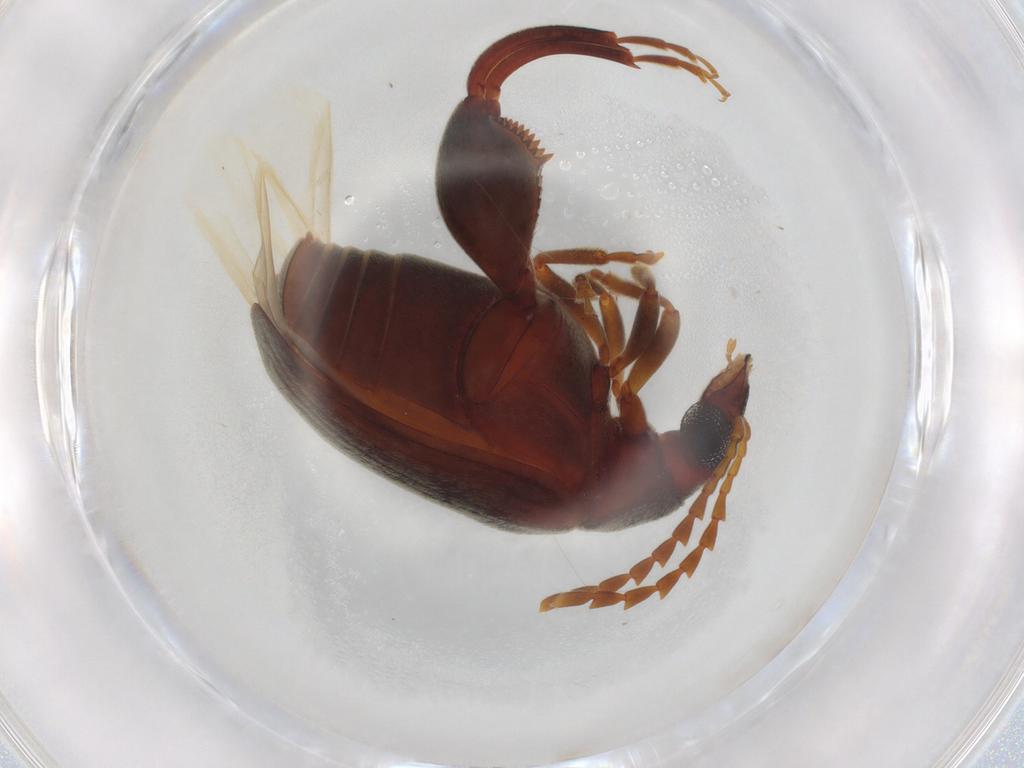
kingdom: Animalia
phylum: Arthropoda
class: Insecta
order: Coleoptera
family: Chrysomelidae
